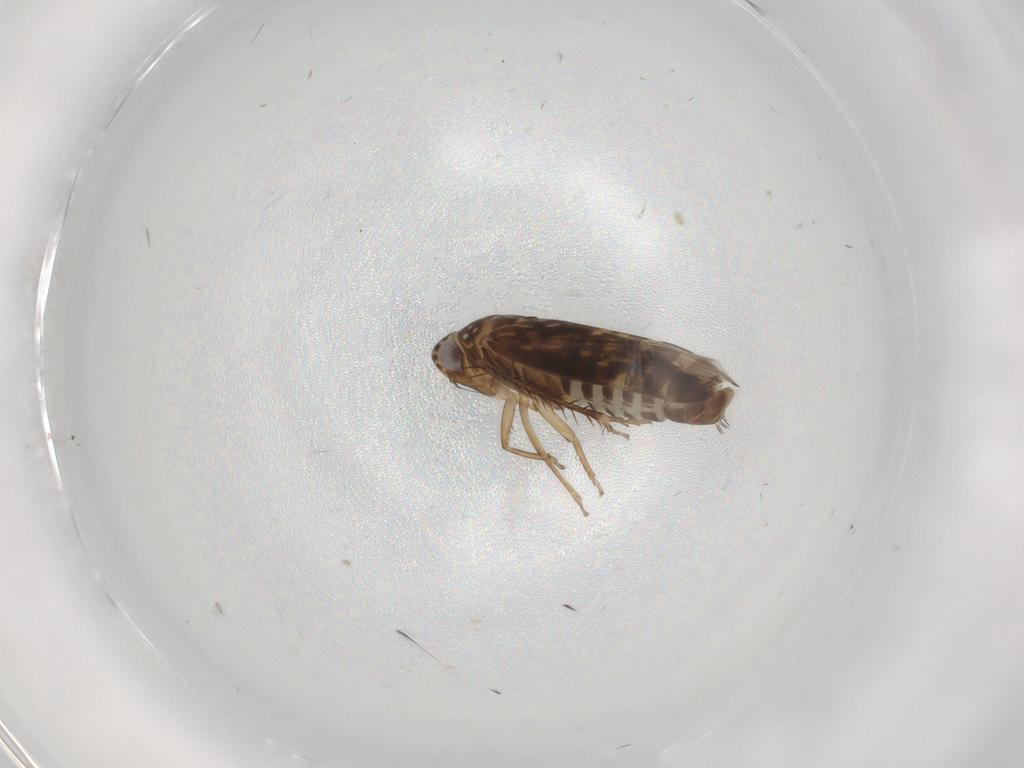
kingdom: Animalia
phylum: Arthropoda
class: Insecta
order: Hemiptera
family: Cicadellidae
